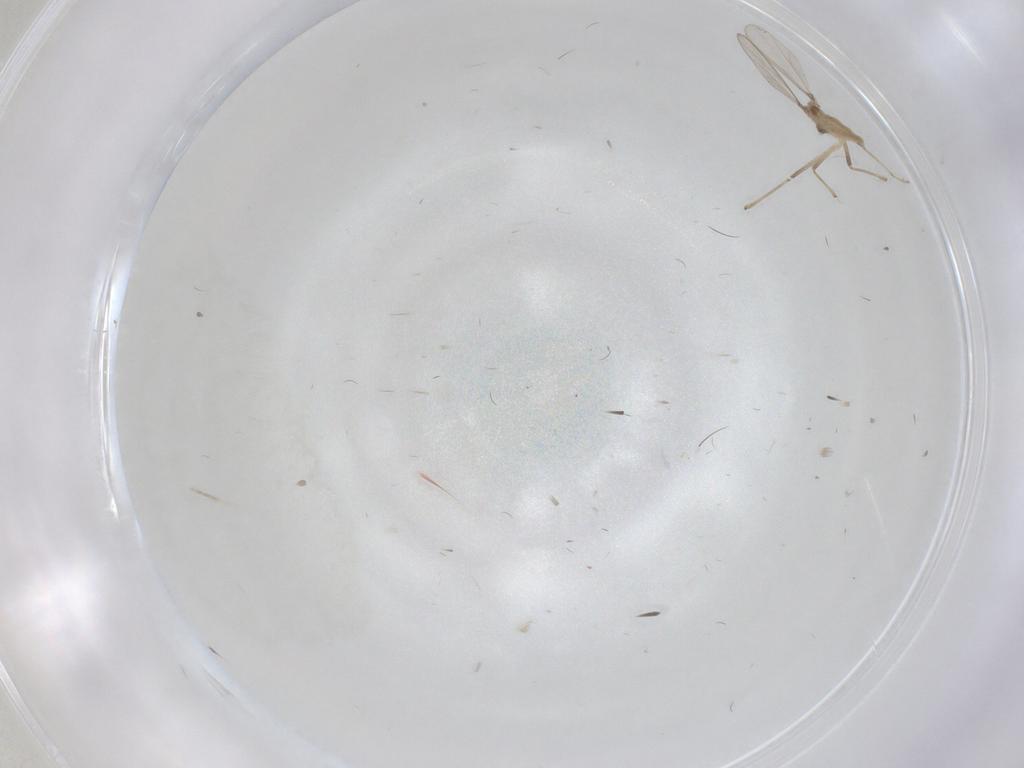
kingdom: Animalia
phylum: Arthropoda
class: Insecta
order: Diptera
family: Chironomidae
